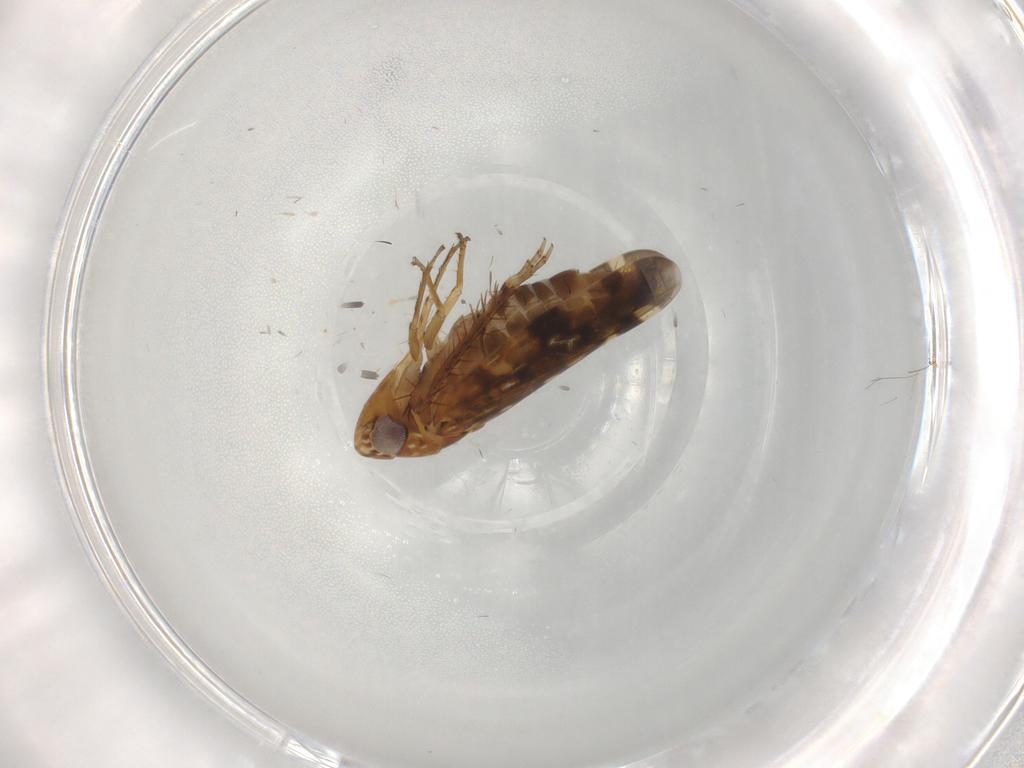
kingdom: Animalia
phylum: Arthropoda
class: Insecta
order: Hemiptera
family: Cicadellidae
